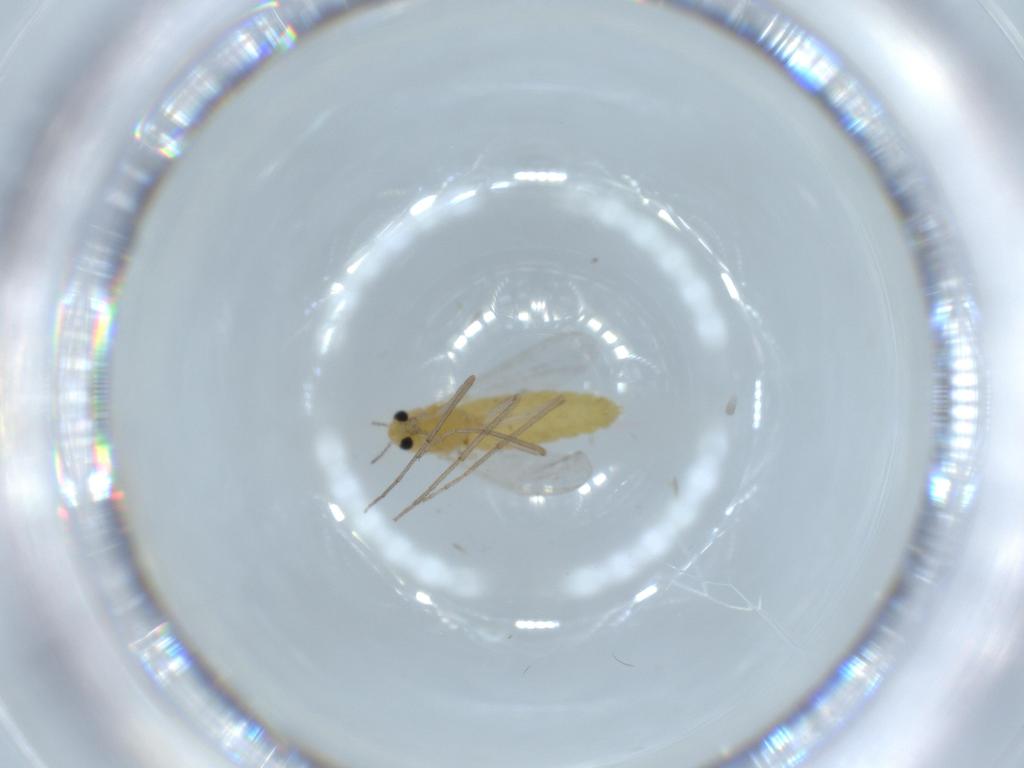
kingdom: Animalia
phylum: Arthropoda
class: Insecta
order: Diptera
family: Chironomidae
